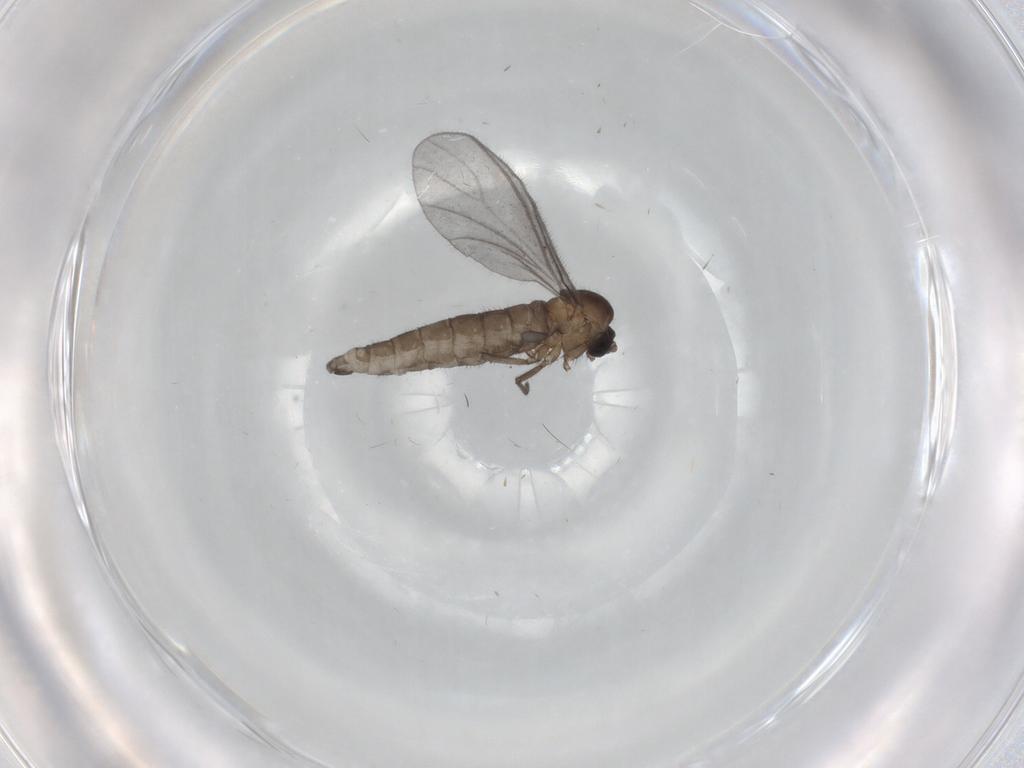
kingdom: Animalia
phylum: Arthropoda
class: Insecta
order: Diptera
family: Sciaridae
